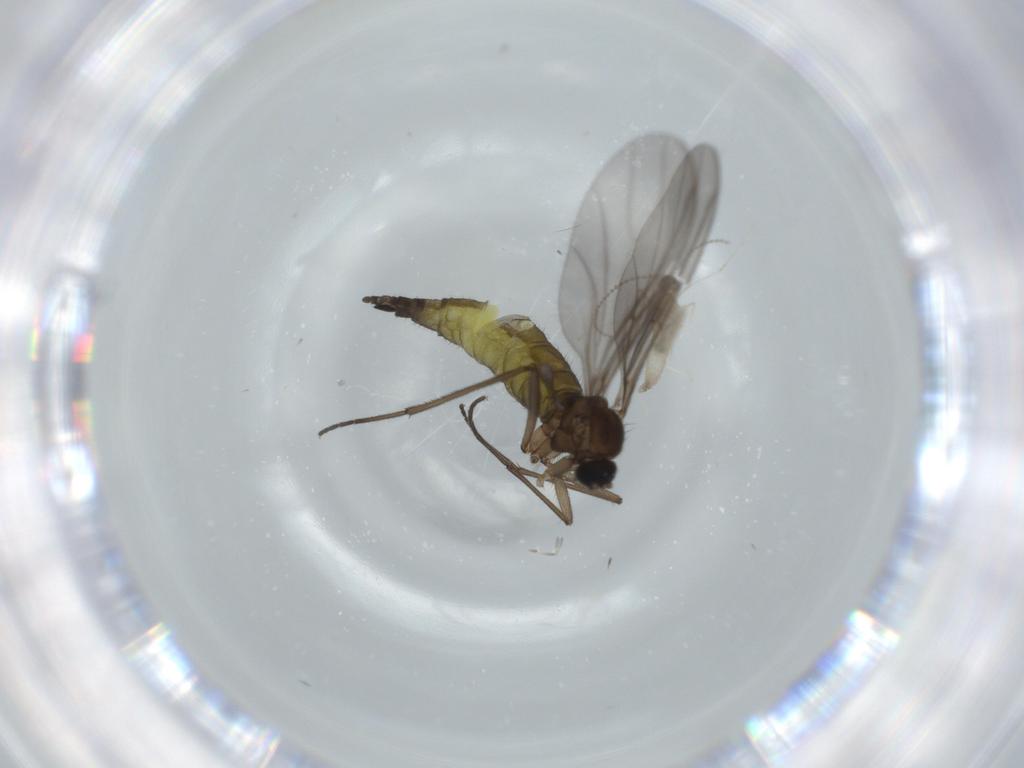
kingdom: Animalia
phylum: Arthropoda
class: Insecta
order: Diptera
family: Cecidomyiidae
